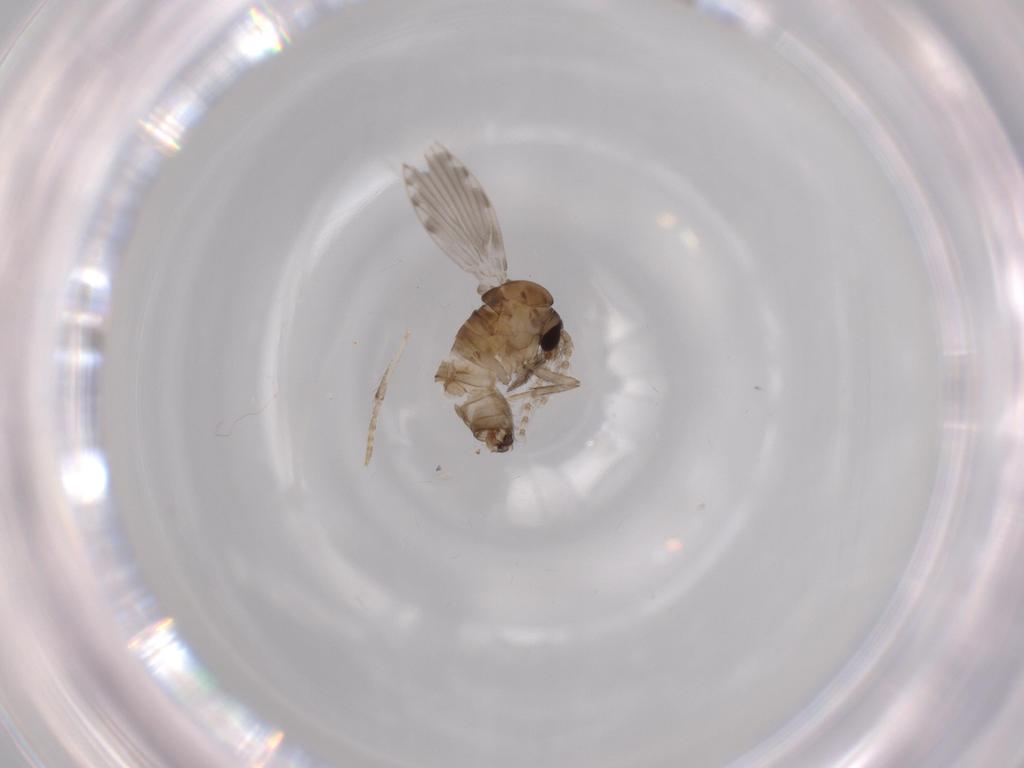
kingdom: Animalia
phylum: Arthropoda
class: Insecta
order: Diptera
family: Psychodidae
